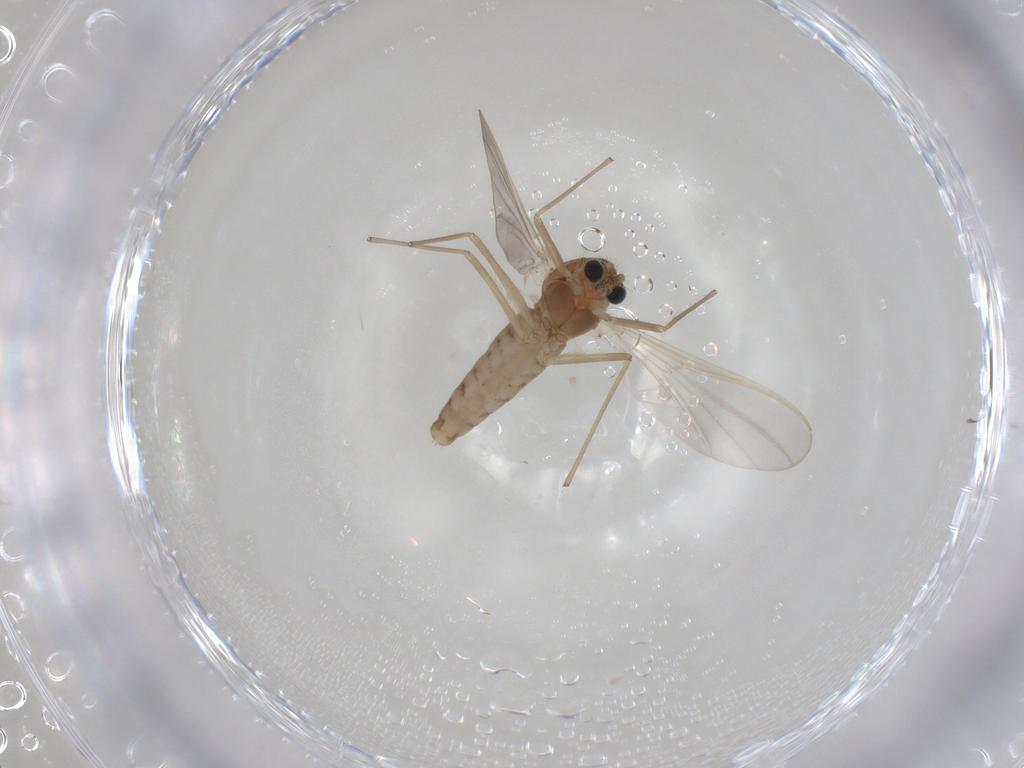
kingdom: Animalia
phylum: Arthropoda
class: Insecta
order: Diptera
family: Chironomidae
